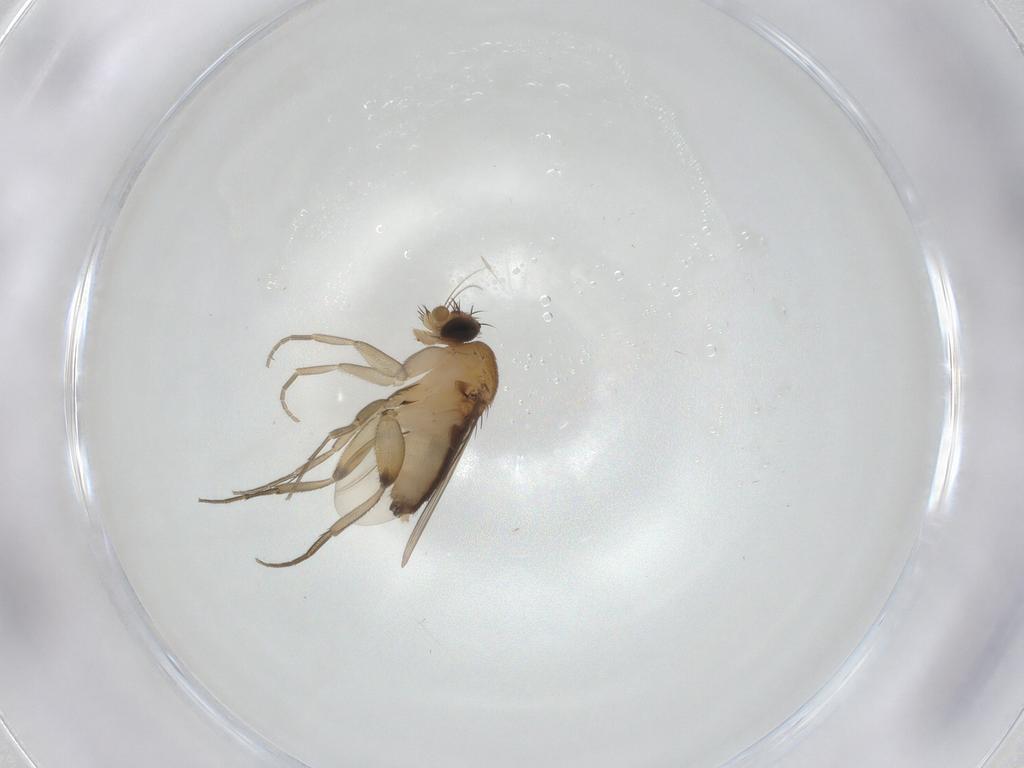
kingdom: Animalia
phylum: Arthropoda
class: Insecta
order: Diptera
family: Phoridae
